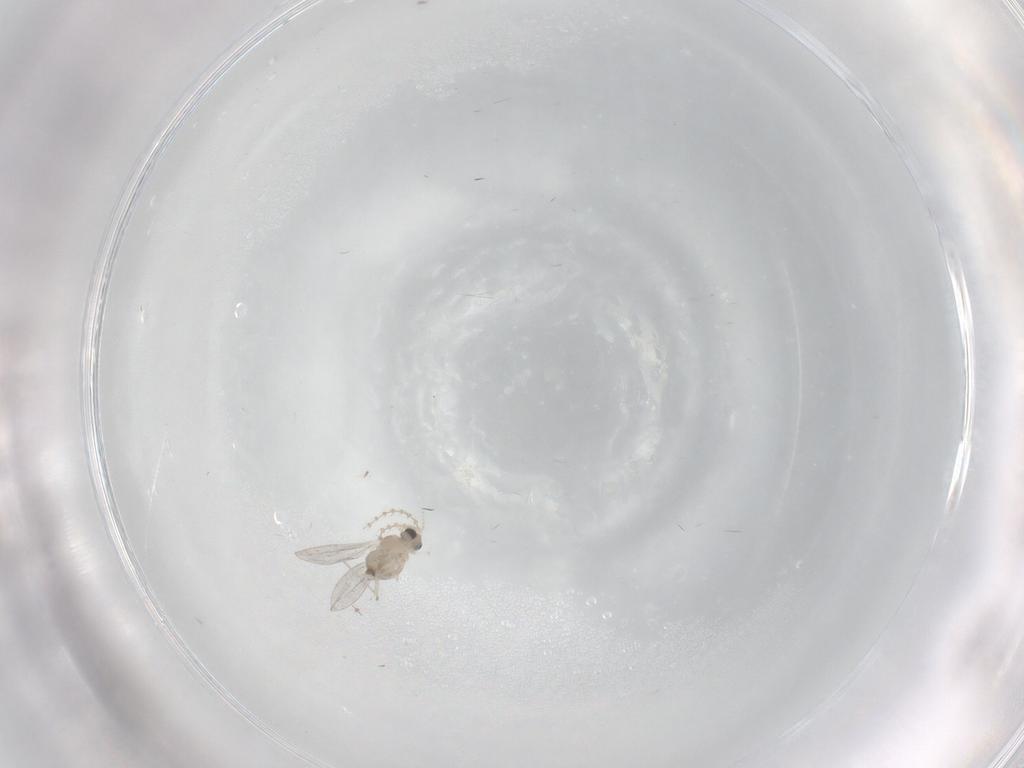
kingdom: Animalia
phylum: Arthropoda
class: Insecta
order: Diptera
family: Cecidomyiidae
